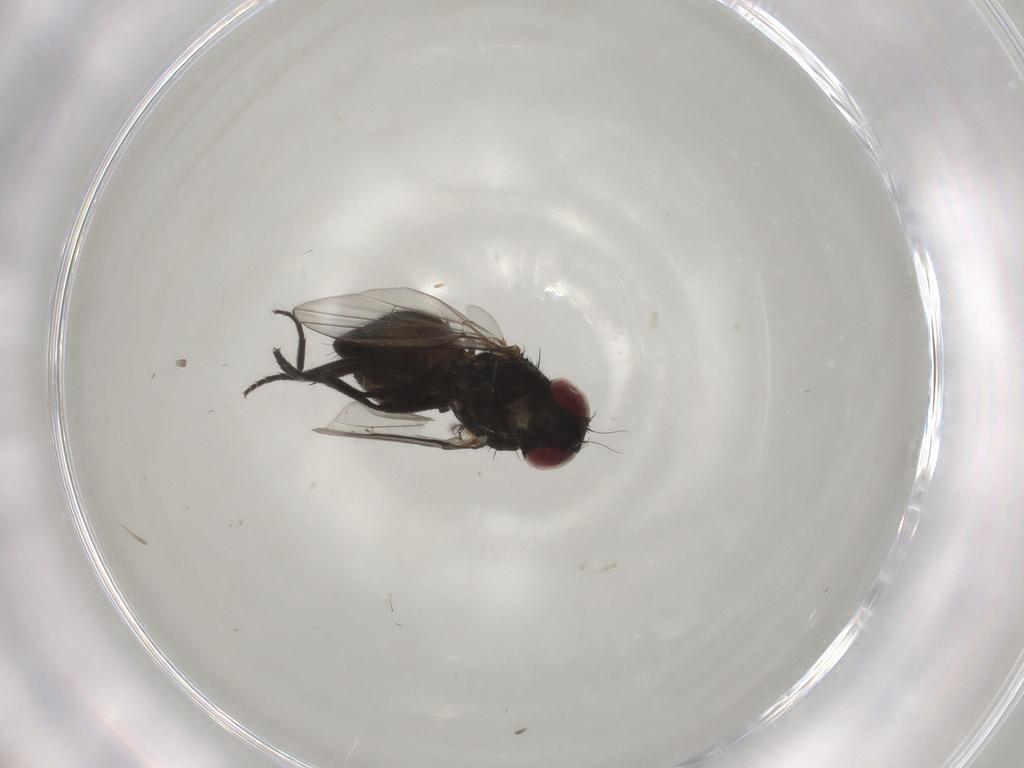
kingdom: Animalia
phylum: Arthropoda
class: Insecta
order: Diptera
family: Agromyzidae
